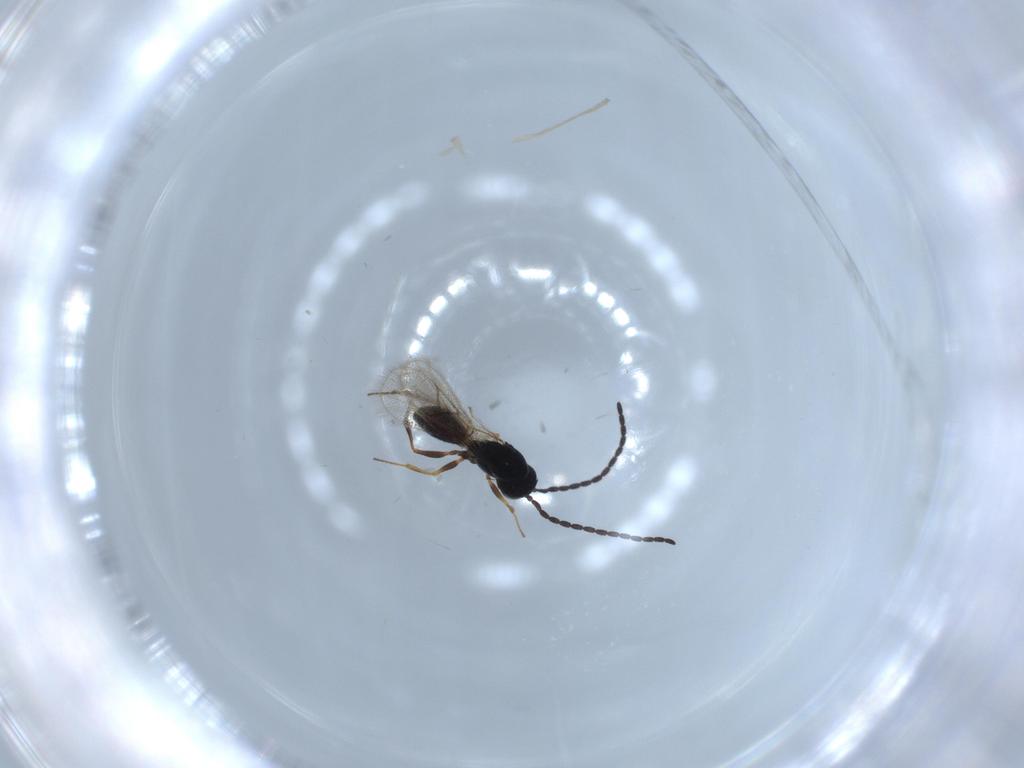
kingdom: Animalia
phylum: Arthropoda
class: Insecta
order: Hymenoptera
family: Figitidae
